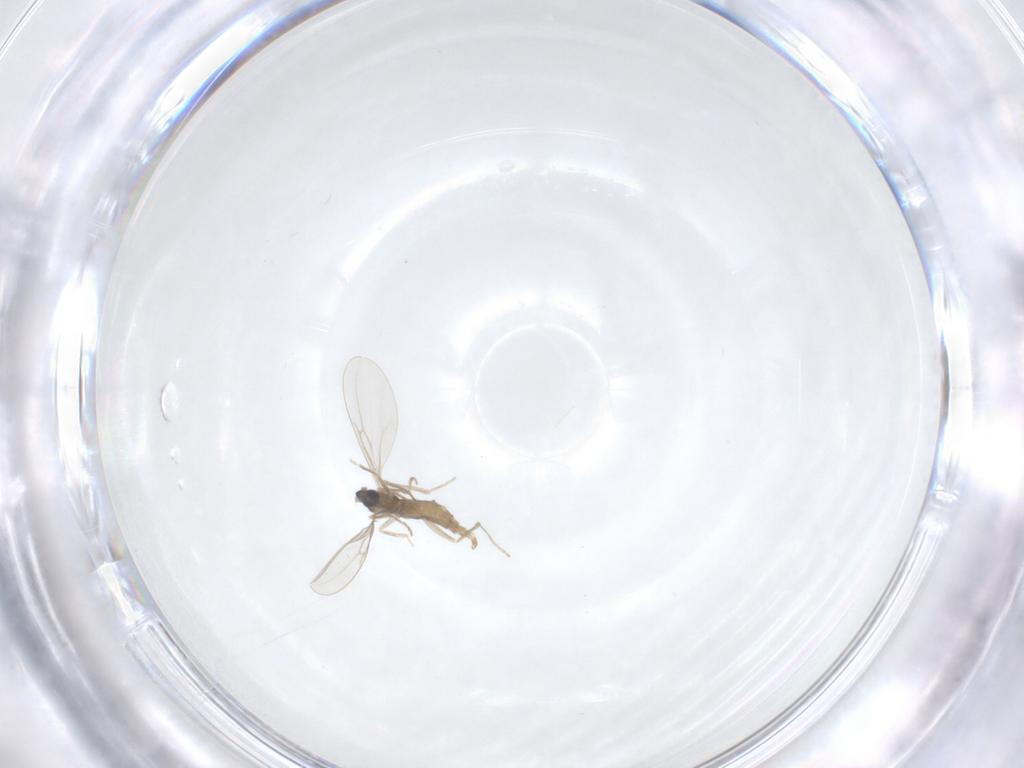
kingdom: Animalia
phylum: Arthropoda
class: Insecta
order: Diptera
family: Cecidomyiidae
